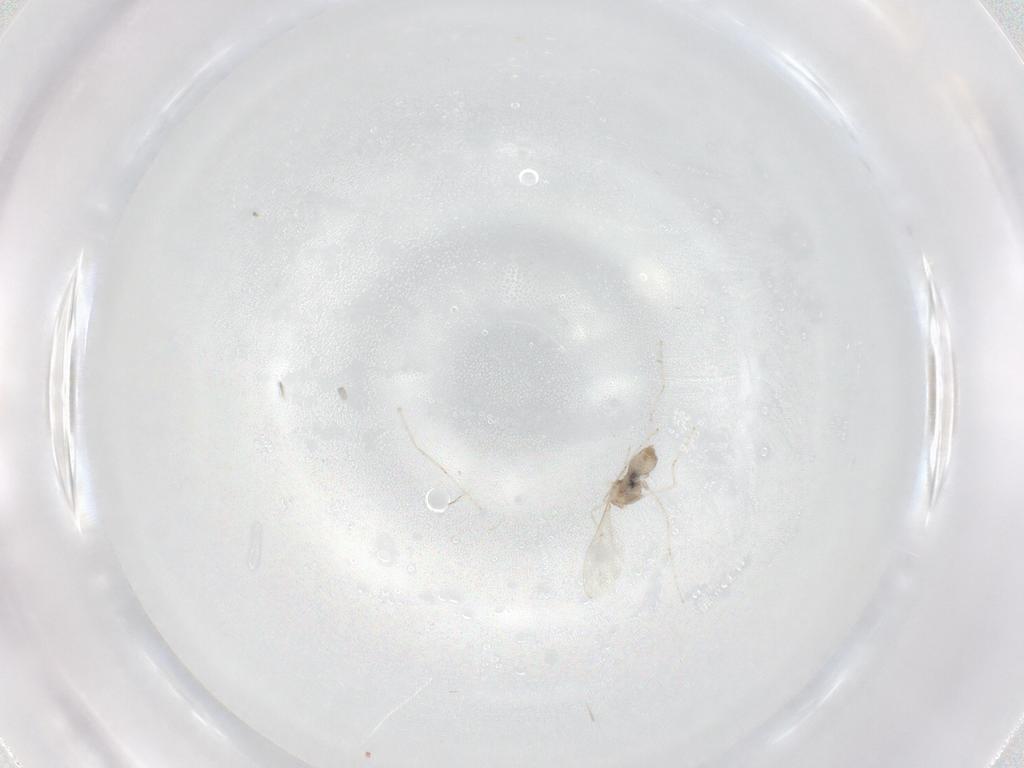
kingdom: Animalia
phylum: Arthropoda
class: Insecta
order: Diptera
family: Cecidomyiidae
